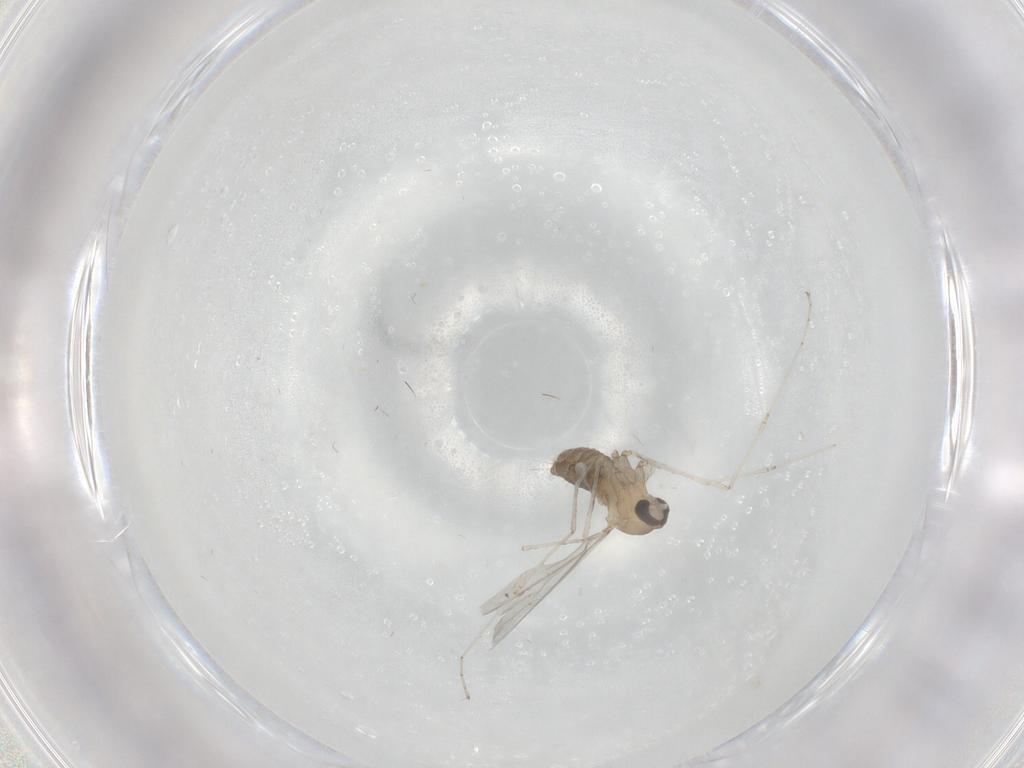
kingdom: Animalia
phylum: Arthropoda
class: Insecta
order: Diptera
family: Cecidomyiidae
